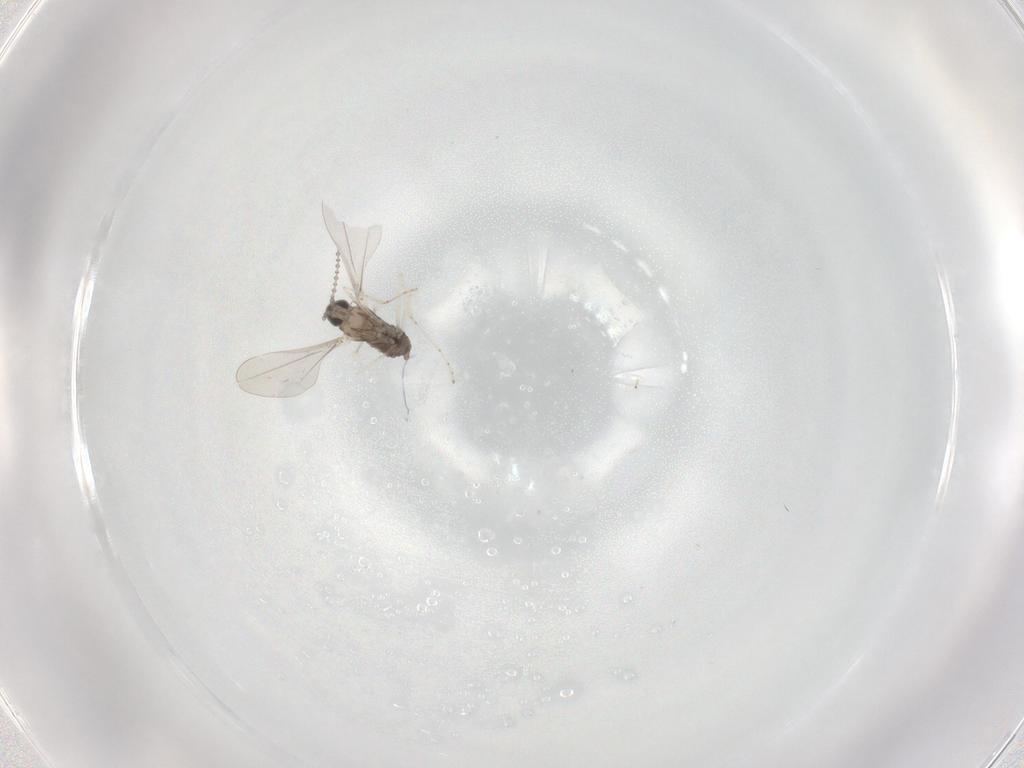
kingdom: Animalia
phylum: Arthropoda
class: Insecta
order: Diptera
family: Cecidomyiidae
